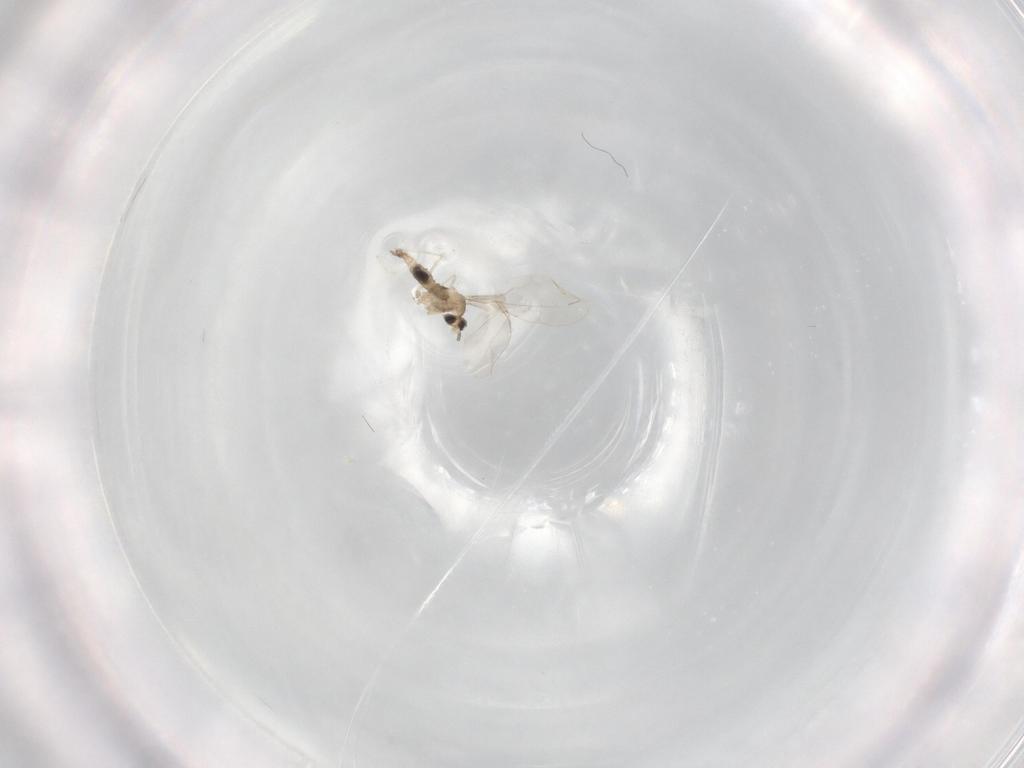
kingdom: Animalia
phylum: Arthropoda
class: Insecta
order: Diptera
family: Cecidomyiidae
